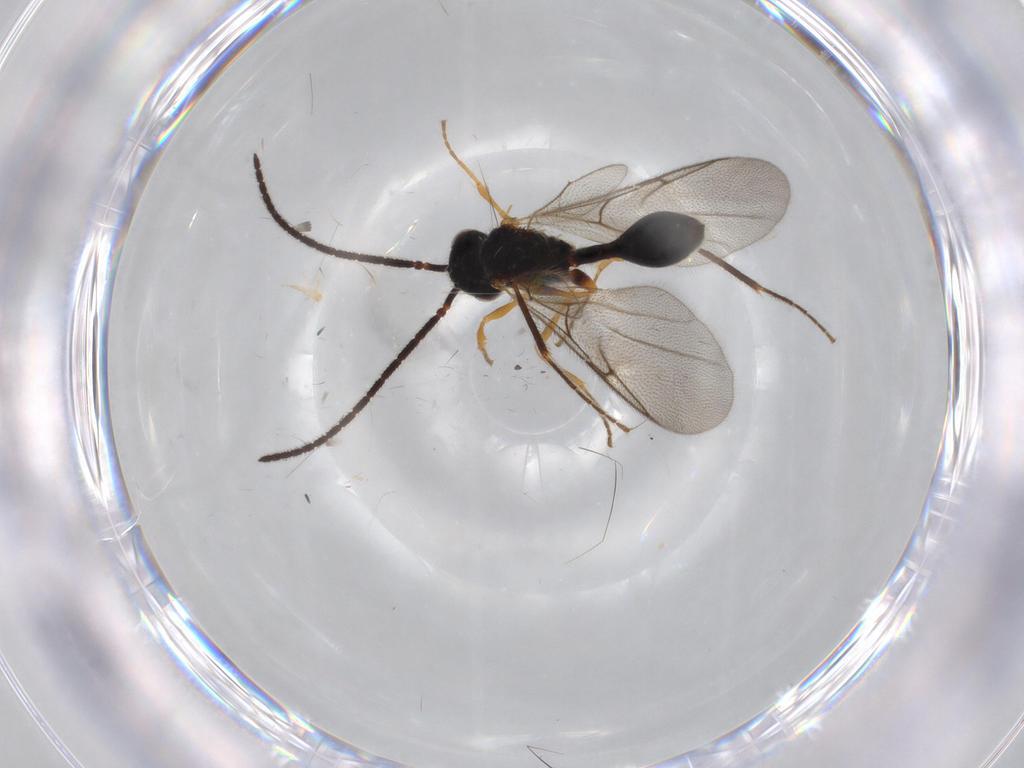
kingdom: Animalia
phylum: Arthropoda
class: Insecta
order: Hymenoptera
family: Diapriidae
